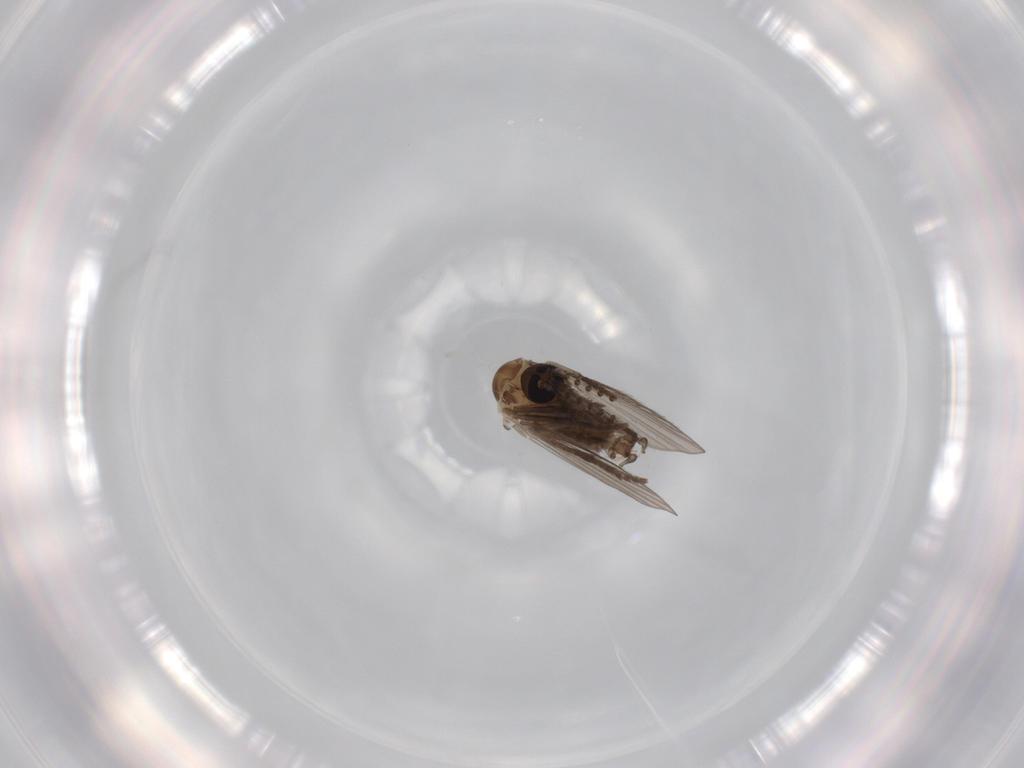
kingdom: Animalia
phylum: Arthropoda
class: Insecta
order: Diptera
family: Psychodidae
